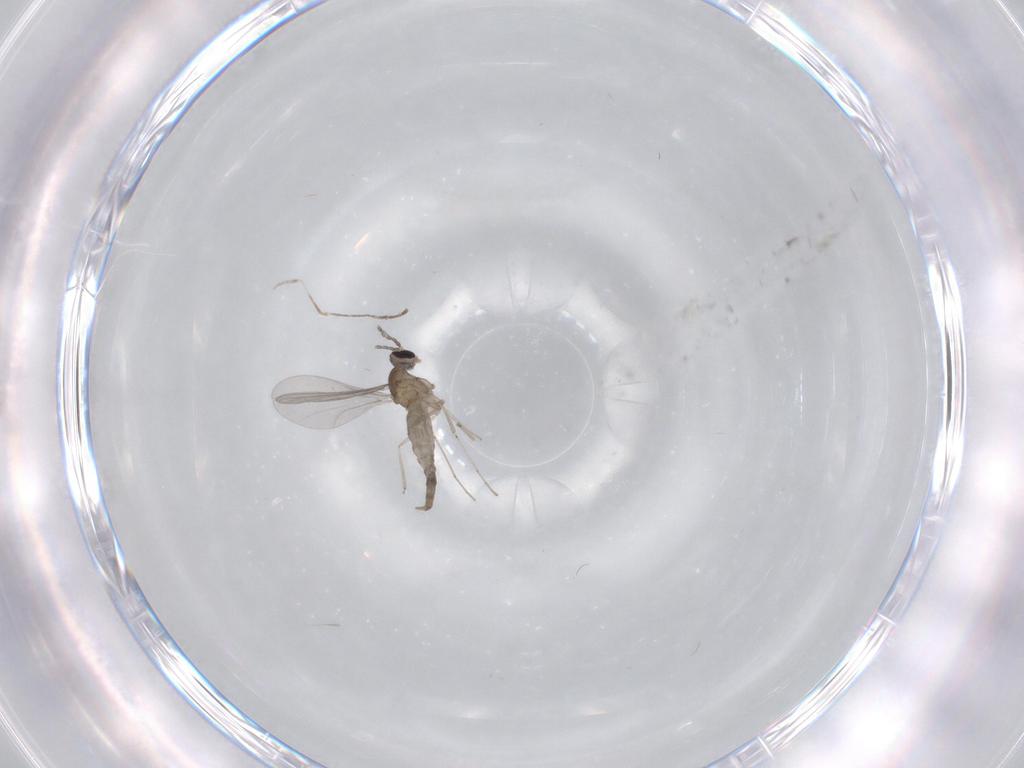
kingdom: Animalia
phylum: Arthropoda
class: Insecta
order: Diptera
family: Cecidomyiidae
